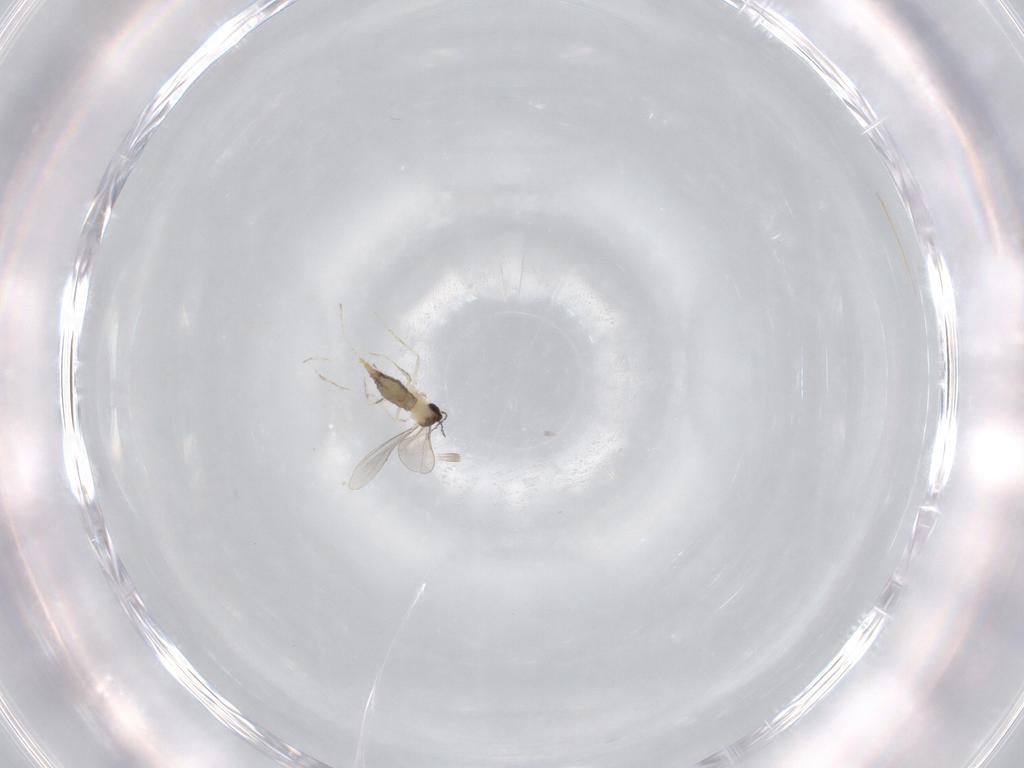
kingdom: Animalia
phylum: Arthropoda
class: Insecta
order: Diptera
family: Cecidomyiidae
